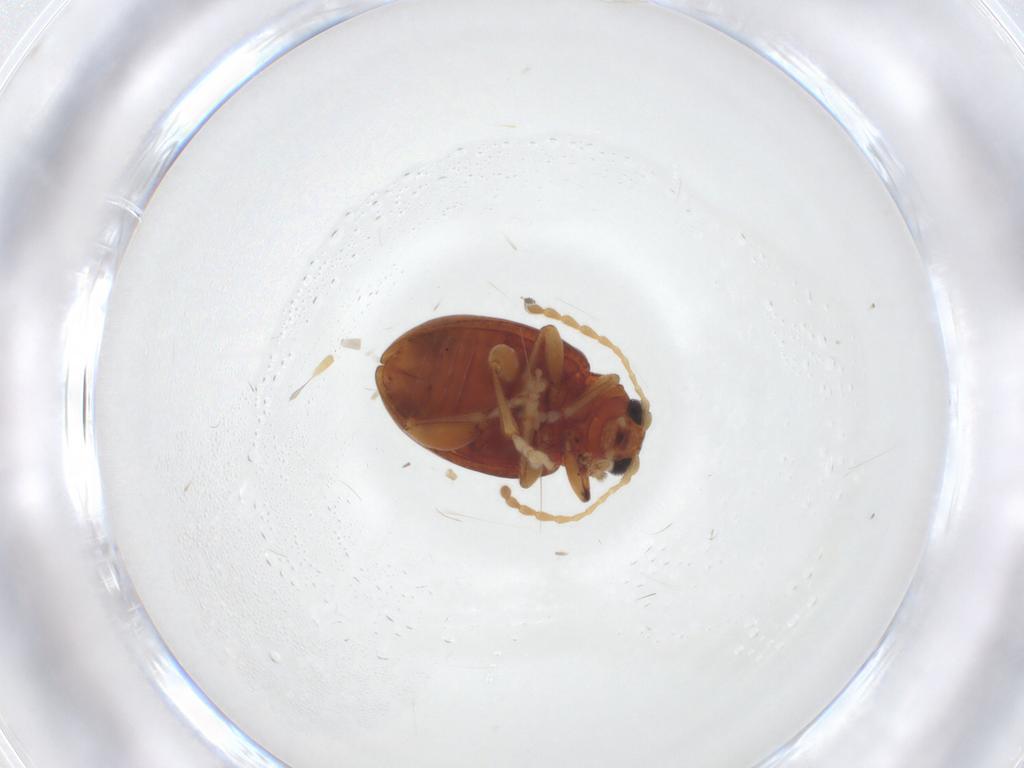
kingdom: Animalia
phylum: Arthropoda
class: Insecta
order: Coleoptera
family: Chrysomelidae
